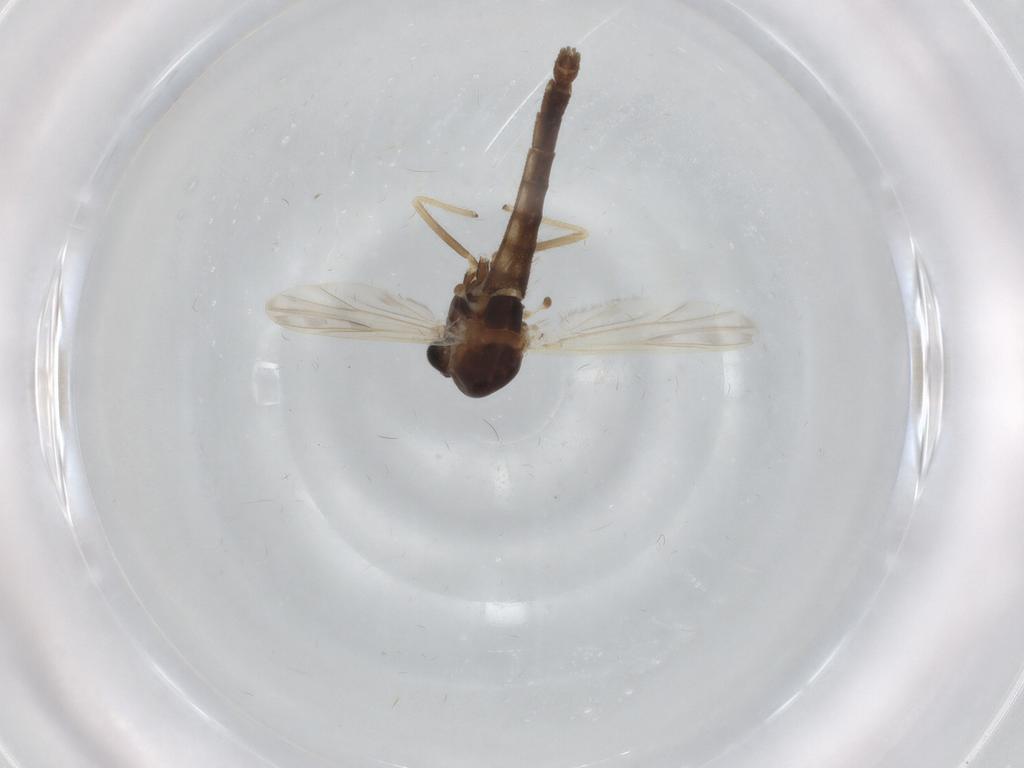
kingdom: Animalia
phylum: Arthropoda
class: Insecta
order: Diptera
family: Chironomidae
